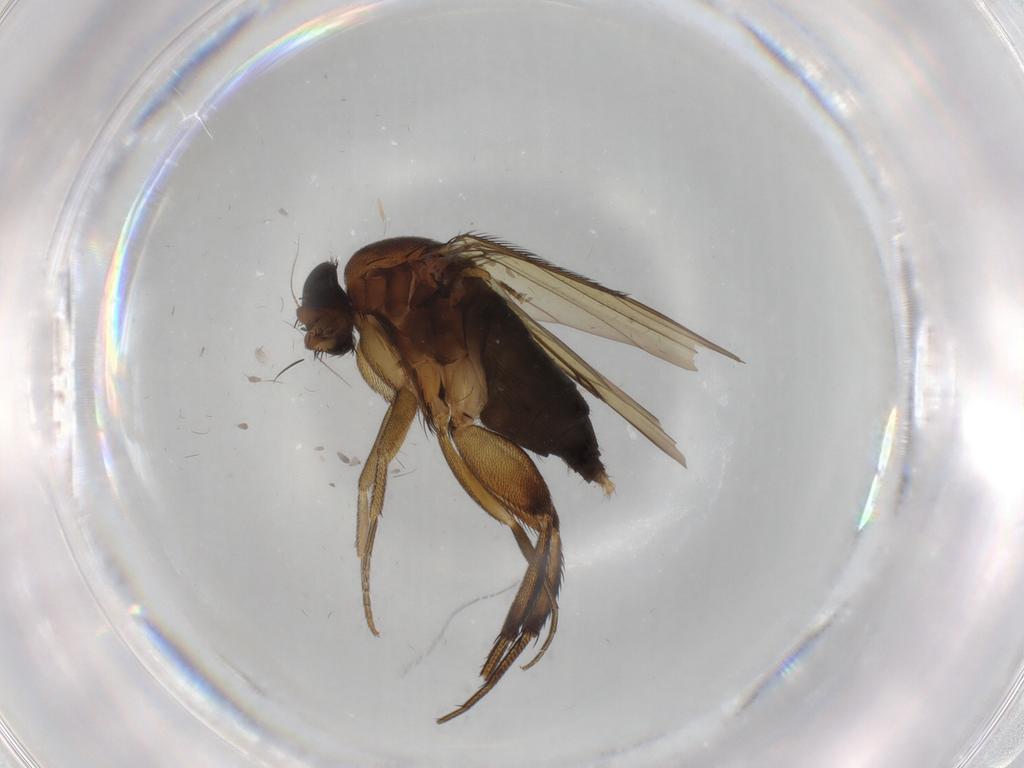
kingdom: Animalia
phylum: Arthropoda
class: Insecta
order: Diptera
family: Phoridae
